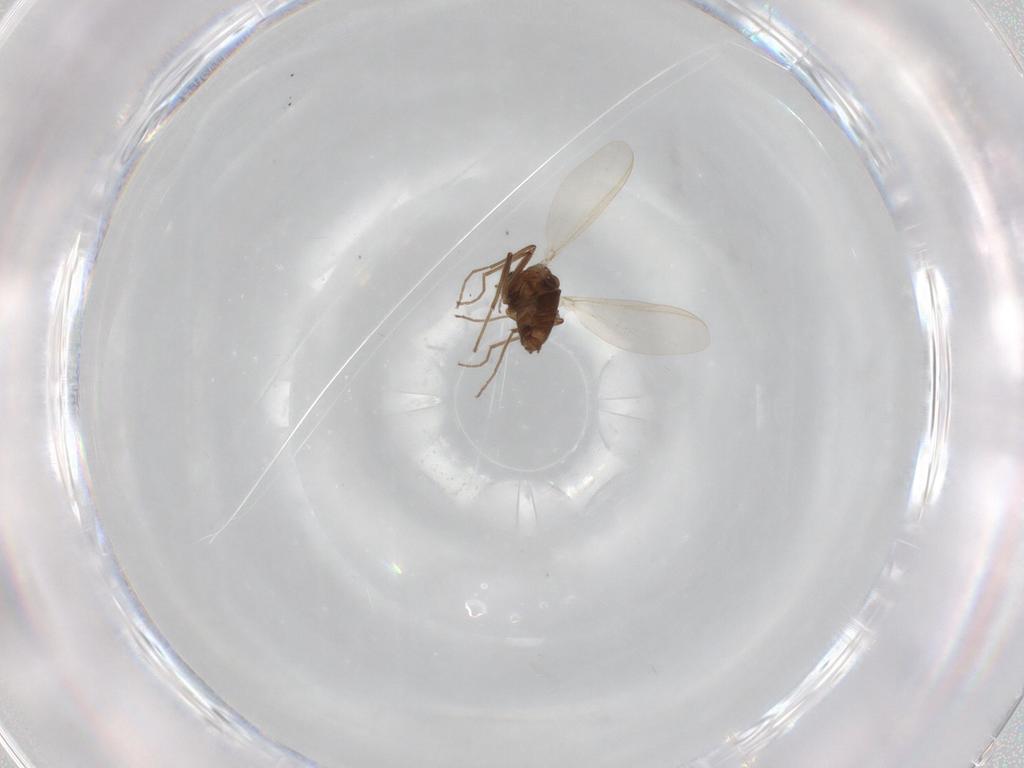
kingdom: Animalia
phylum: Arthropoda
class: Insecta
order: Diptera
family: Chironomidae
